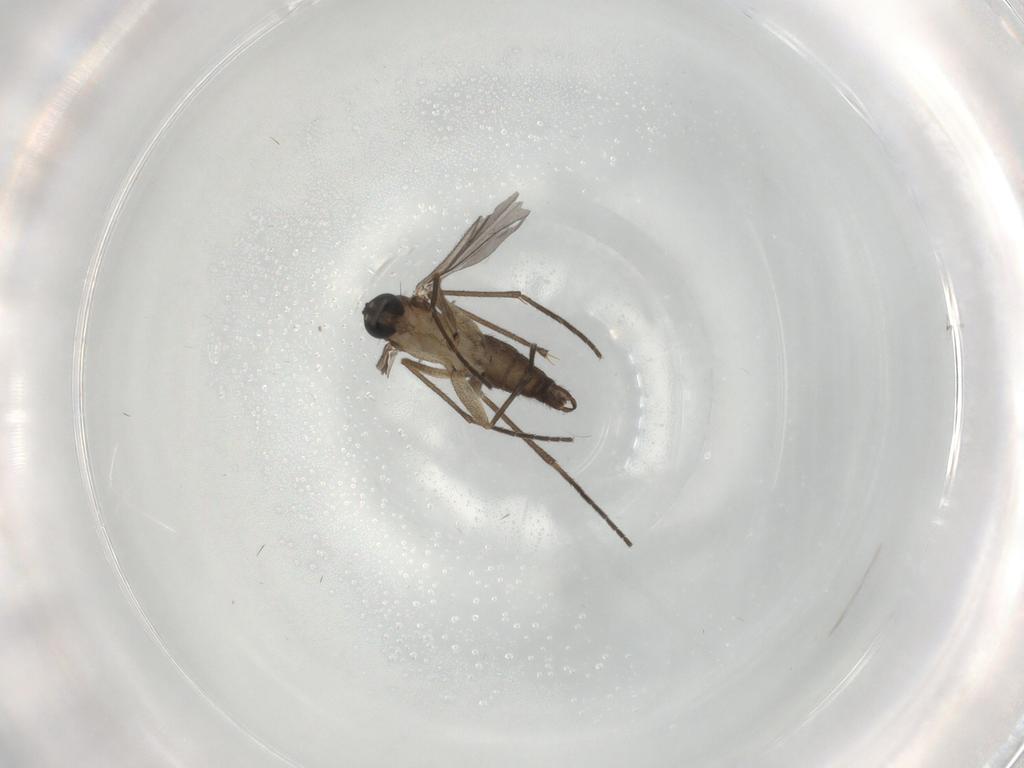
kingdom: Animalia
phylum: Arthropoda
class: Insecta
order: Diptera
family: Sciaridae
